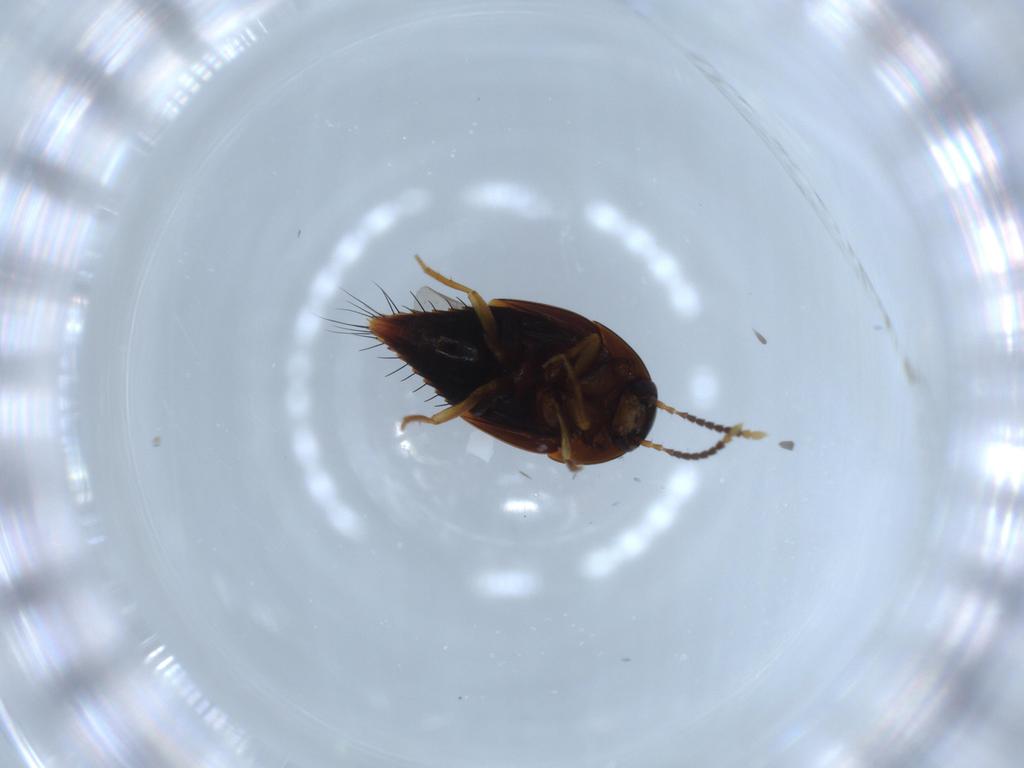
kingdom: Animalia
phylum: Arthropoda
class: Insecta
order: Coleoptera
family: Staphylinidae
